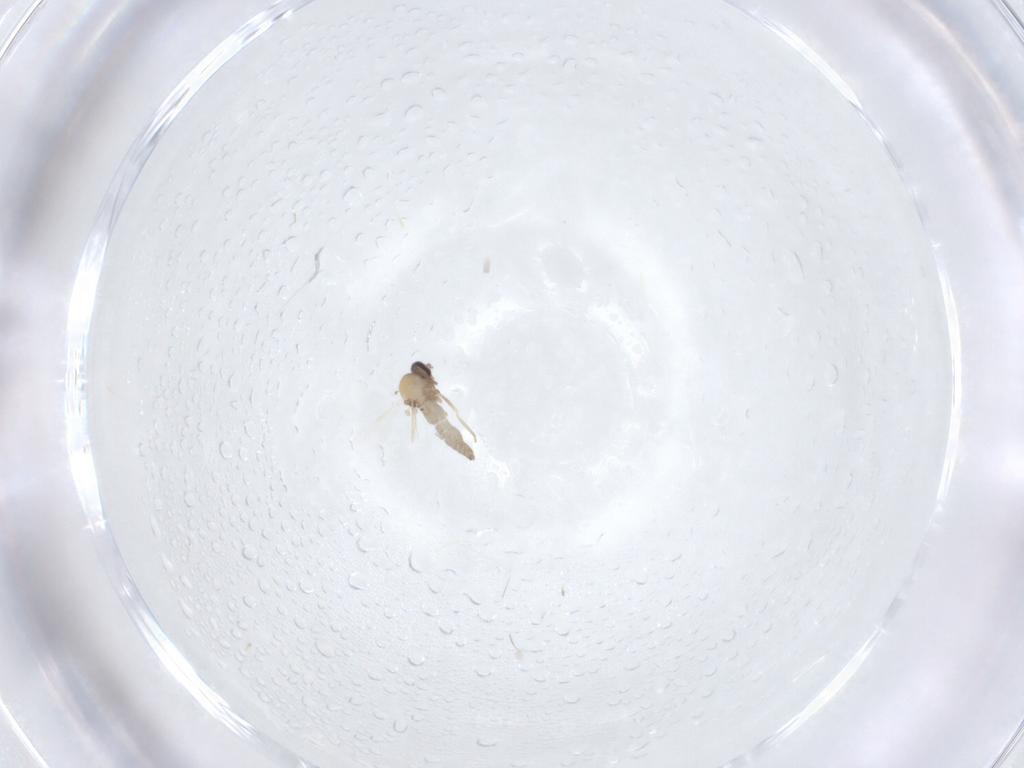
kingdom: Animalia
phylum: Arthropoda
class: Insecta
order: Diptera
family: Ceratopogonidae
